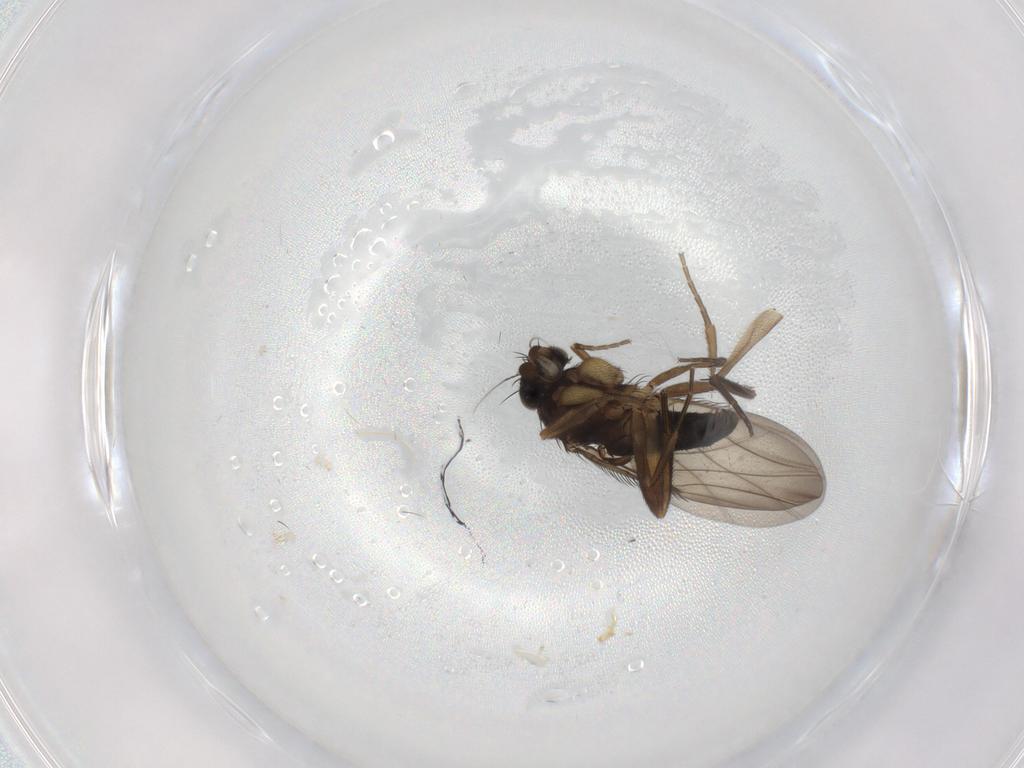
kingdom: Animalia
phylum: Arthropoda
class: Insecta
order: Diptera
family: Phoridae
